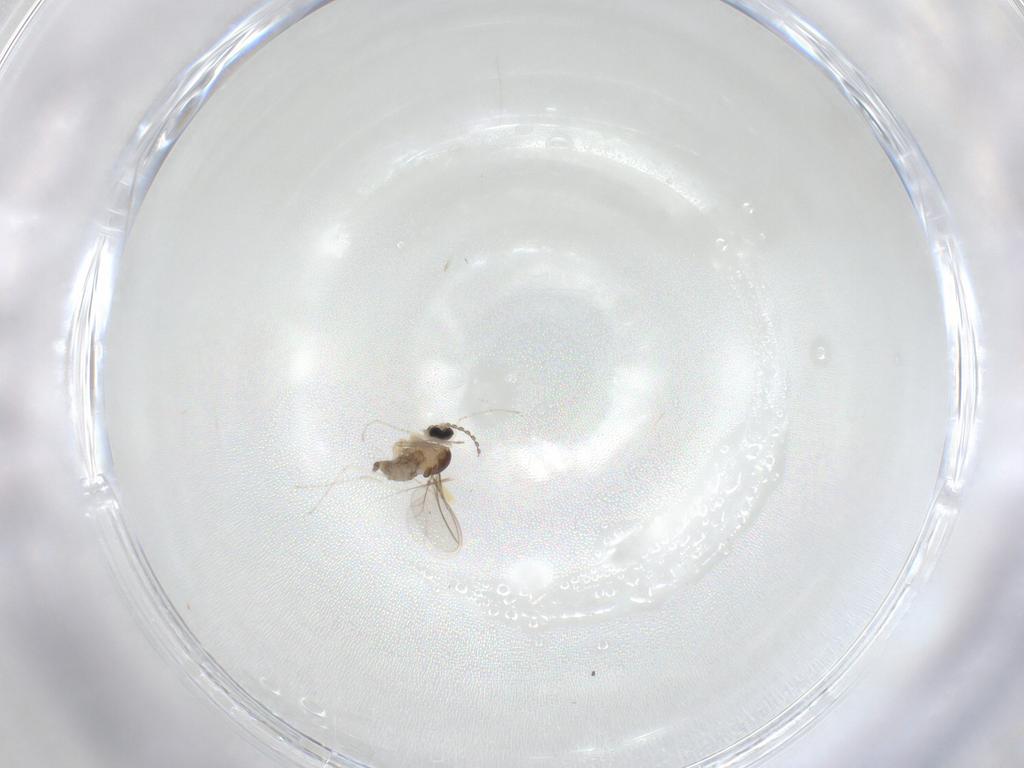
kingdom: Animalia
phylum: Arthropoda
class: Insecta
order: Diptera
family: Cecidomyiidae
